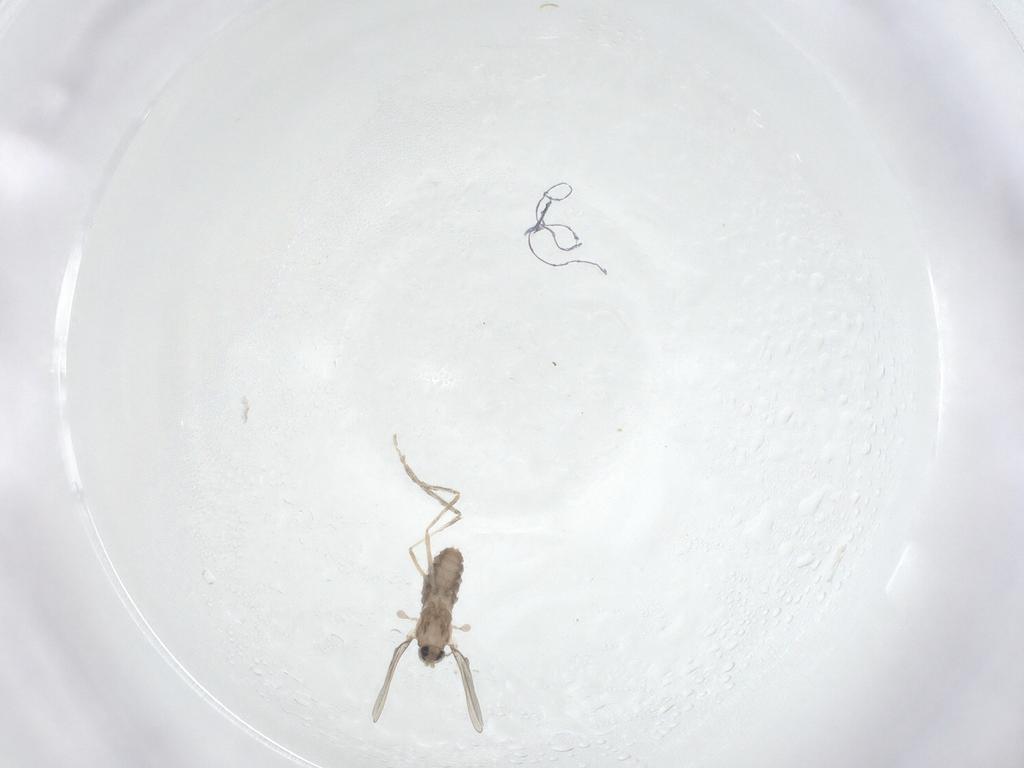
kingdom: Animalia
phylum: Arthropoda
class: Insecta
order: Diptera
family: Cecidomyiidae
